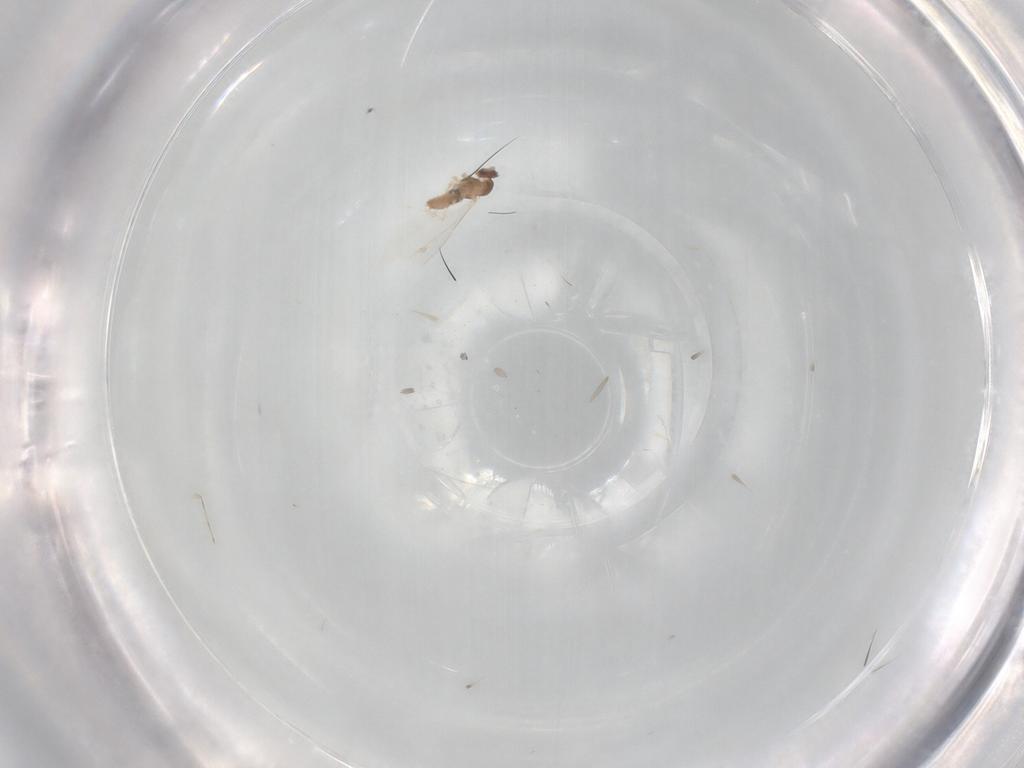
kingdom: Animalia
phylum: Arthropoda
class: Insecta
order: Diptera
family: Cecidomyiidae
